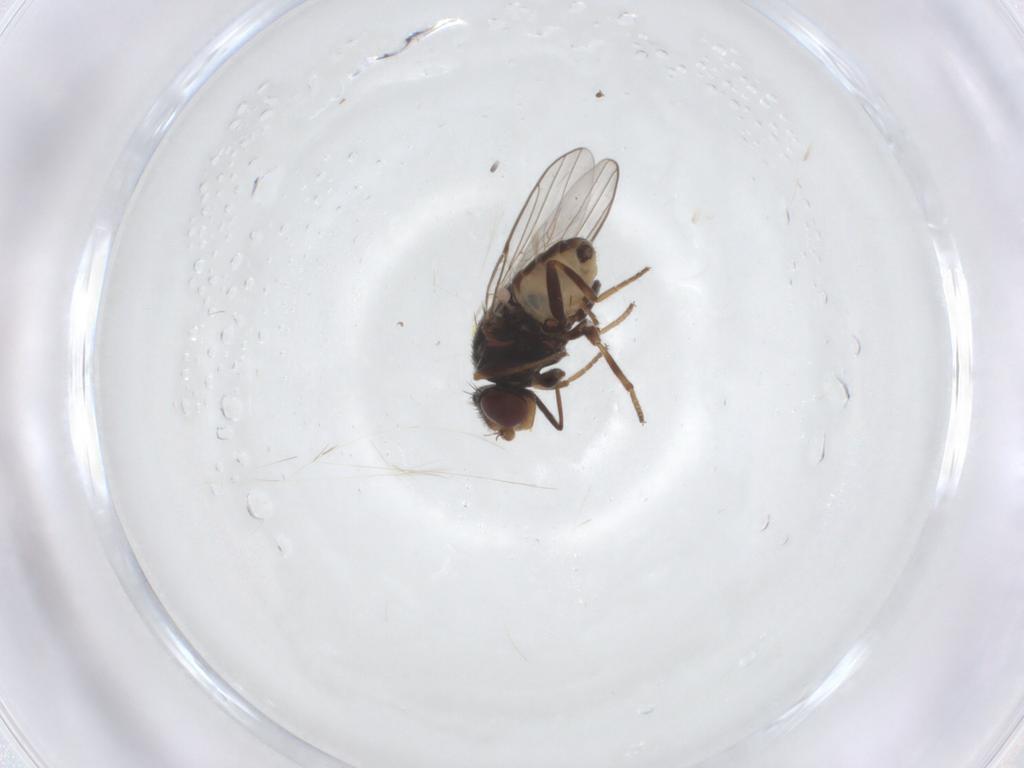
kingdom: Animalia
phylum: Arthropoda
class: Insecta
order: Diptera
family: Chloropidae
